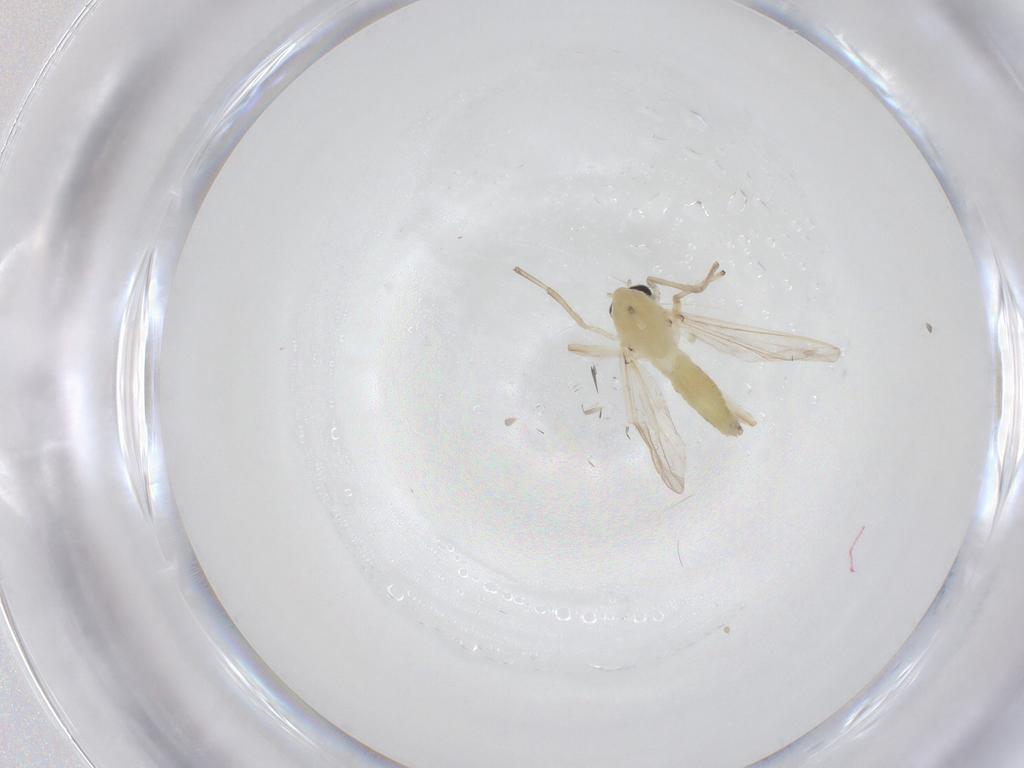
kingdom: Animalia
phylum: Arthropoda
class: Insecta
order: Diptera
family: Chironomidae
